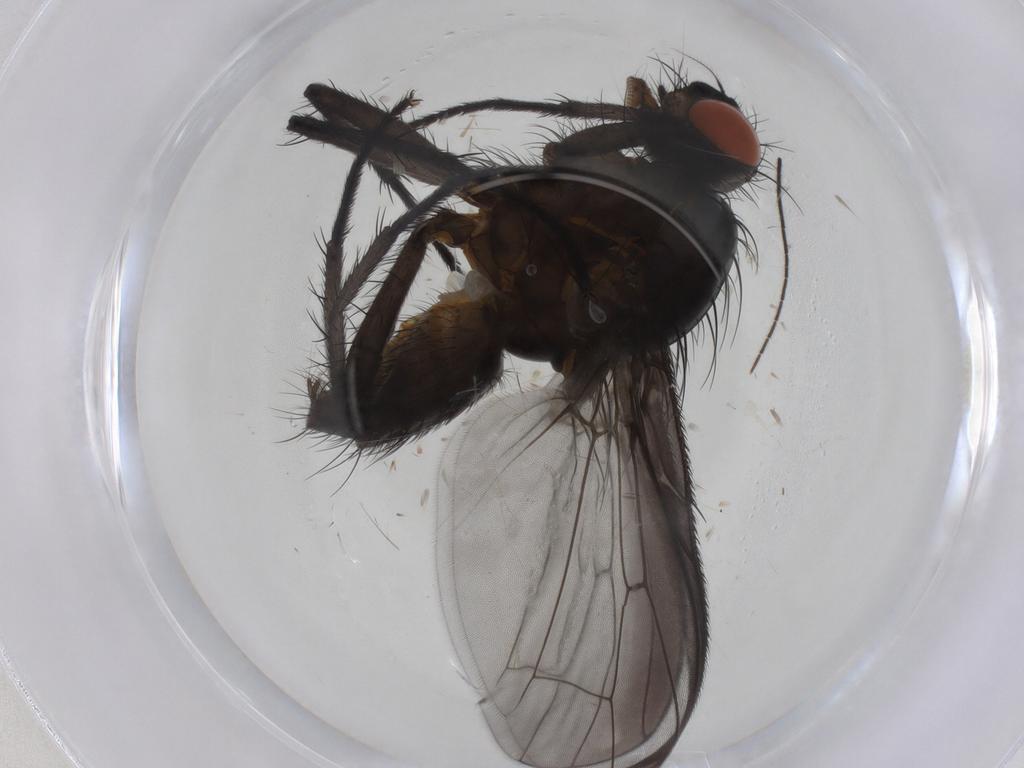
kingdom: Animalia
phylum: Arthropoda
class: Insecta
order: Diptera
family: Anthomyiidae
